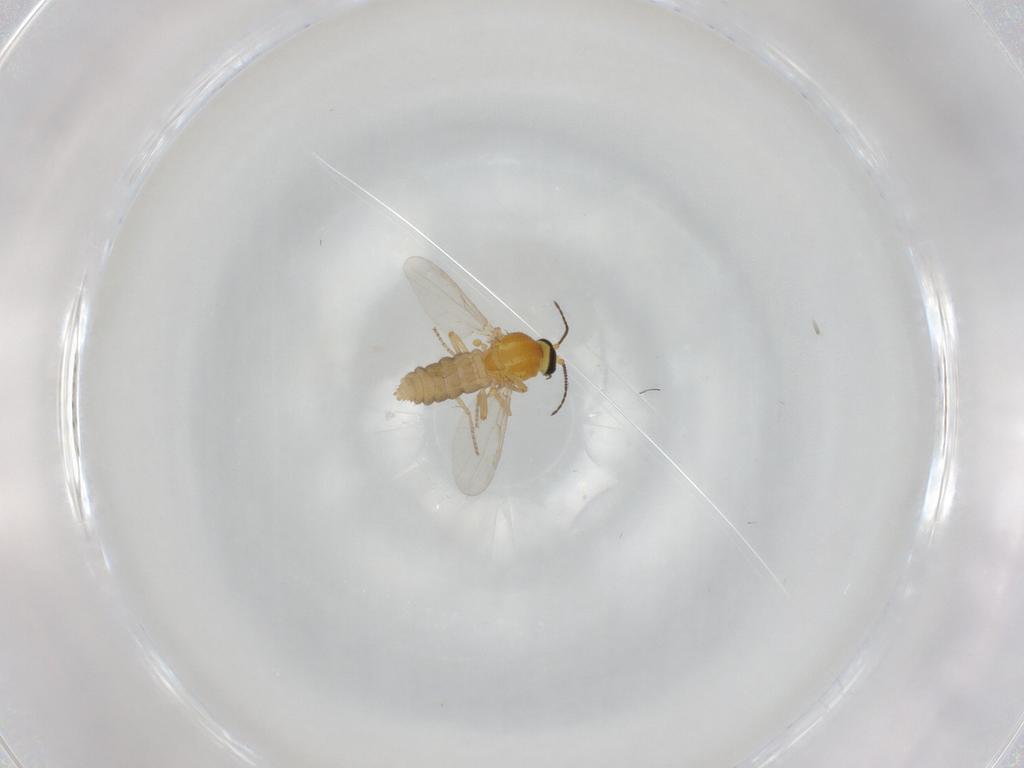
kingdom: Animalia
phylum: Arthropoda
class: Insecta
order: Diptera
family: Ceratopogonidae
